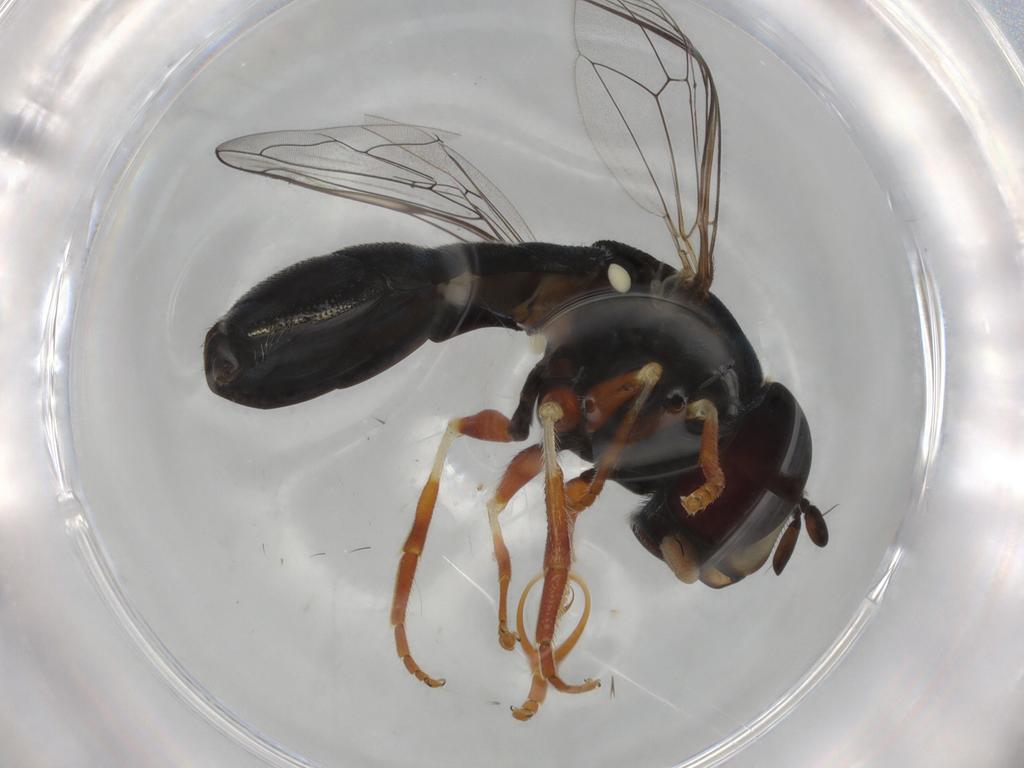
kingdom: Animalia
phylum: Arthropoda
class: Insecta
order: Diptera
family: Syrphidae
